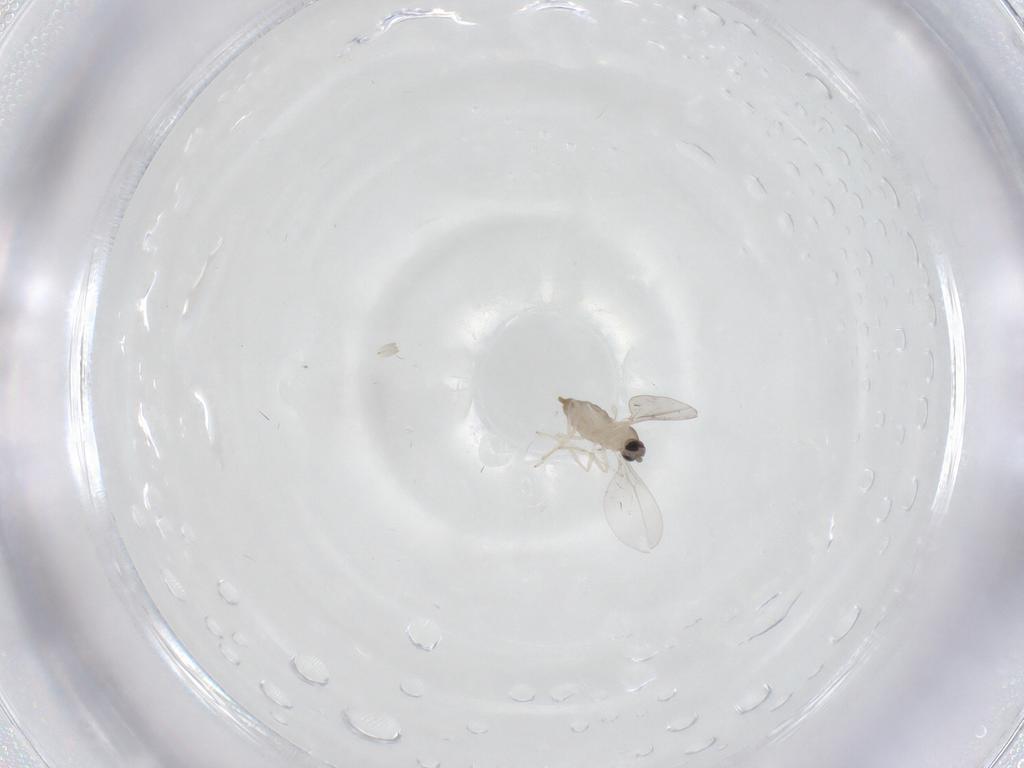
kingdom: Animalia
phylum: Arthropoda
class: Insecta
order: Diptera
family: Cecidomyiidae
